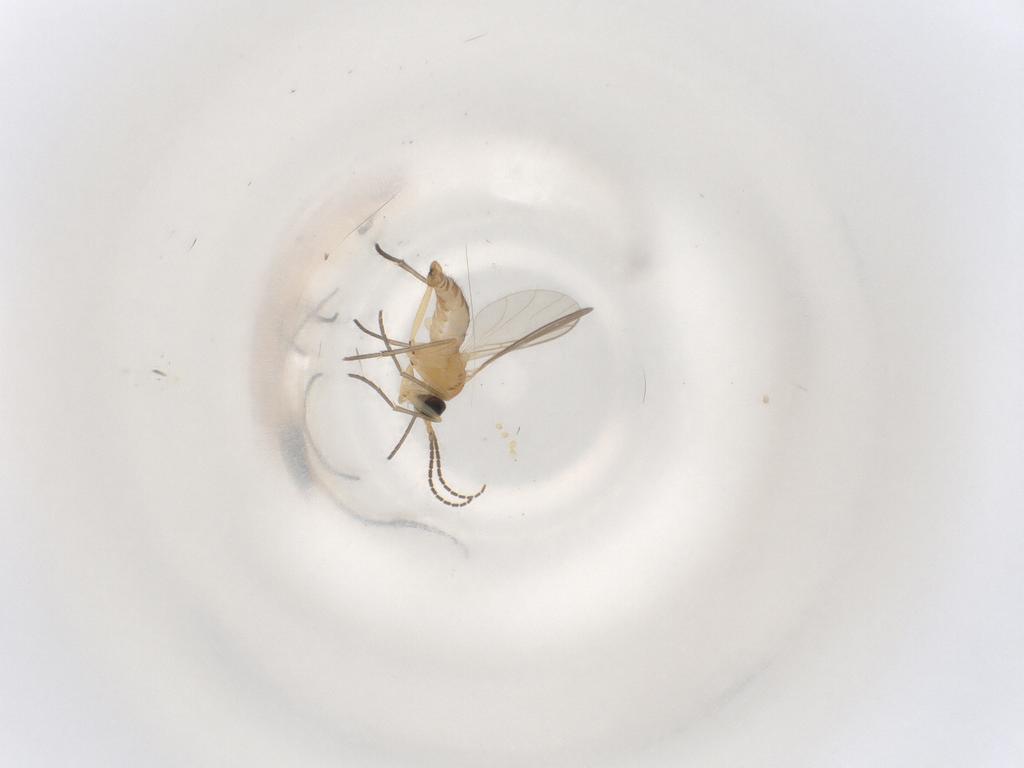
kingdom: Animalia
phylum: Arthropoda
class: Insecta
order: Diptera
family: Sciaridae
